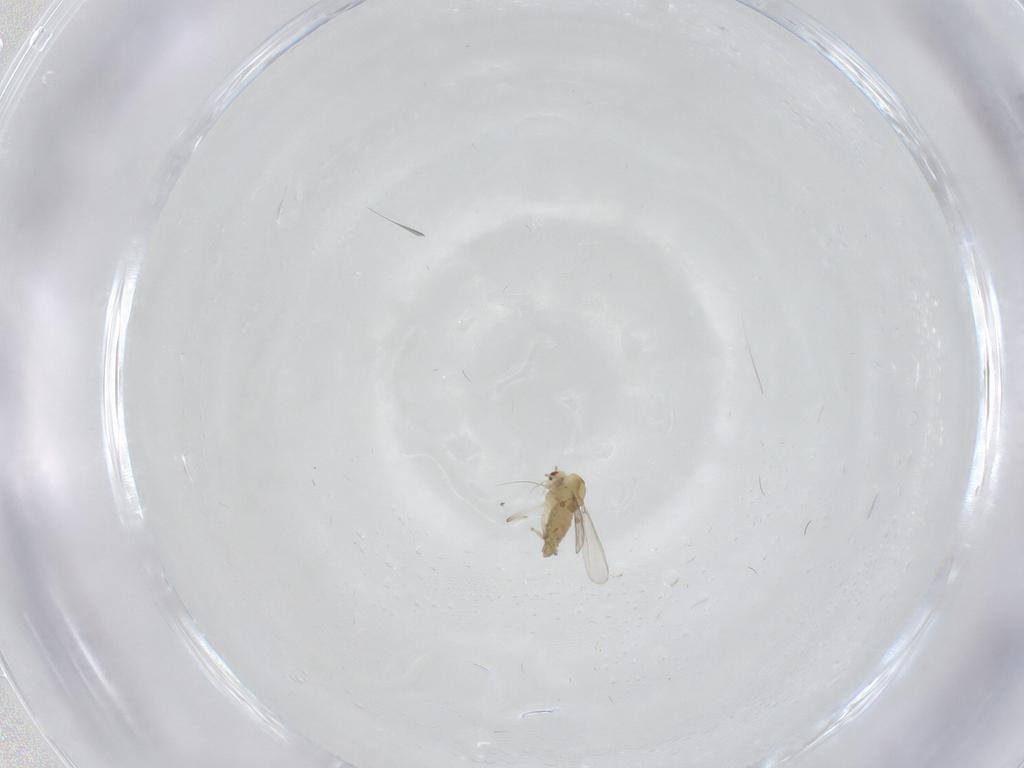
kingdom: Animalia
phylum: Arthropoda
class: Insecta
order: Diptera
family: Chironomidae
